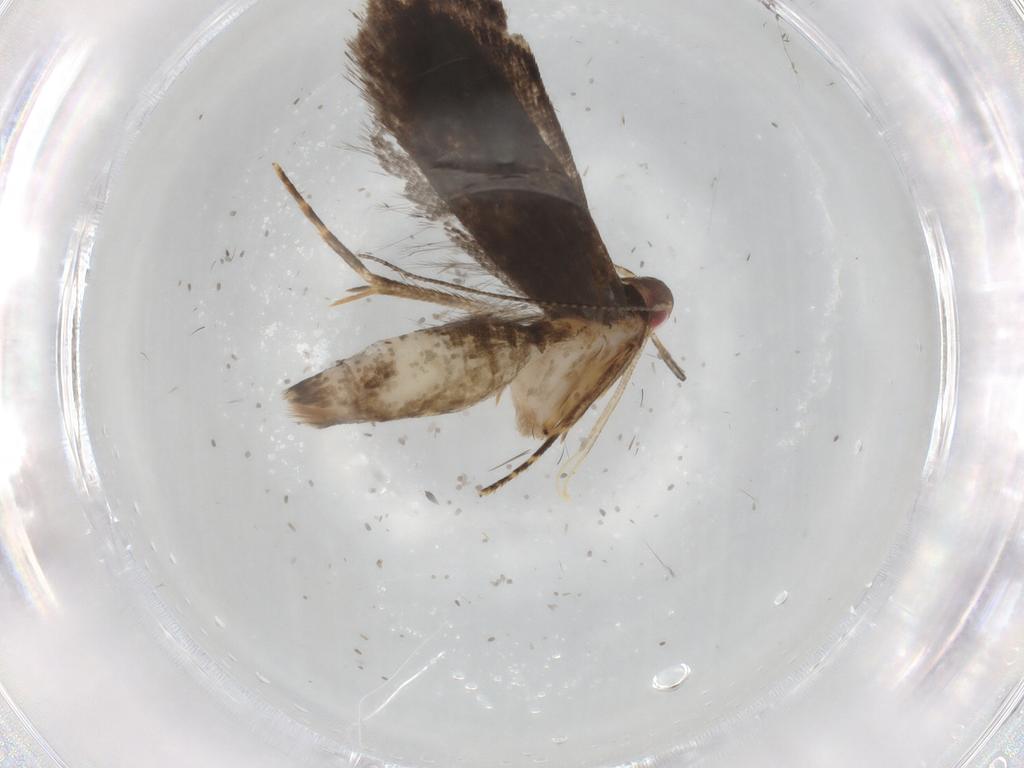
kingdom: Animalia
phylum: Arthropoda
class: Insecta
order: Lepidoptera
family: Gelechiidae
